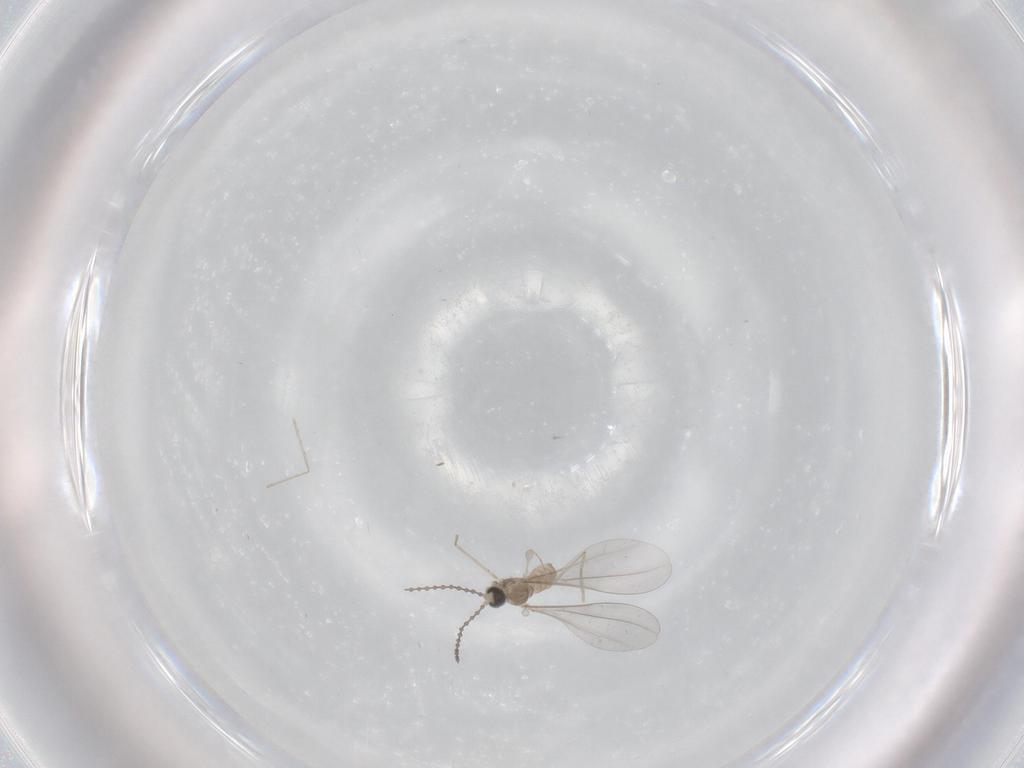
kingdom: Animalia
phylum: Arthropoda
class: Insecta
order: Diptera
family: Cecidomyiidae
